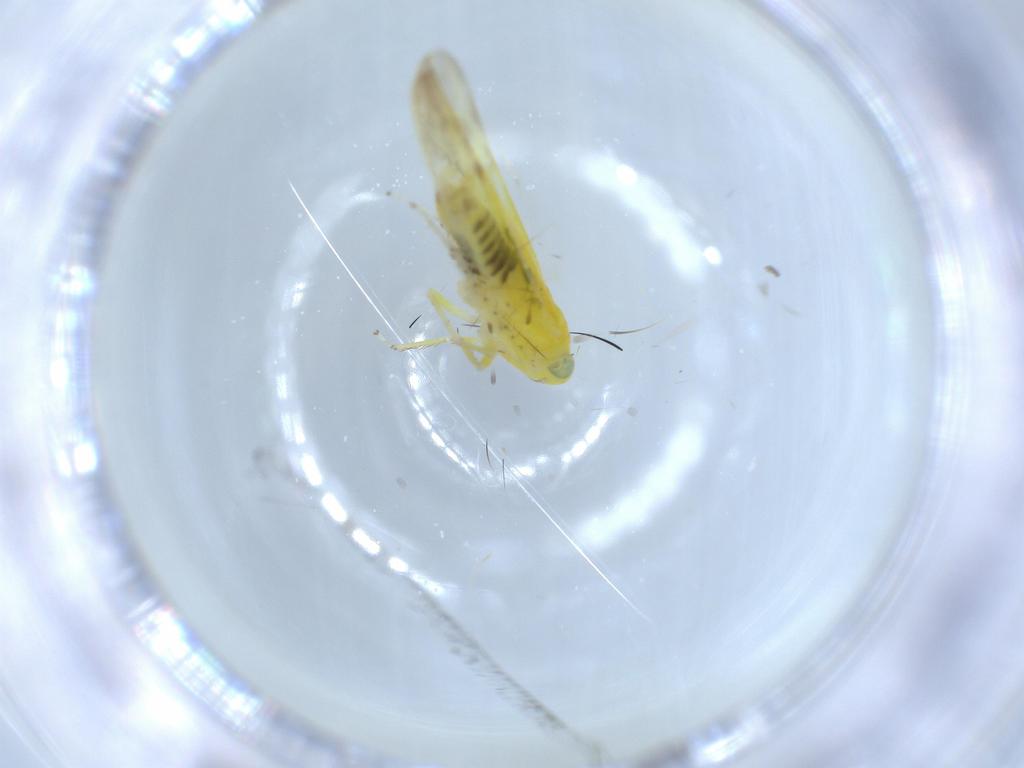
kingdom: Animalia
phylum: Arthropoda
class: Insecta
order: Hemiptera
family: Cicadellidae
